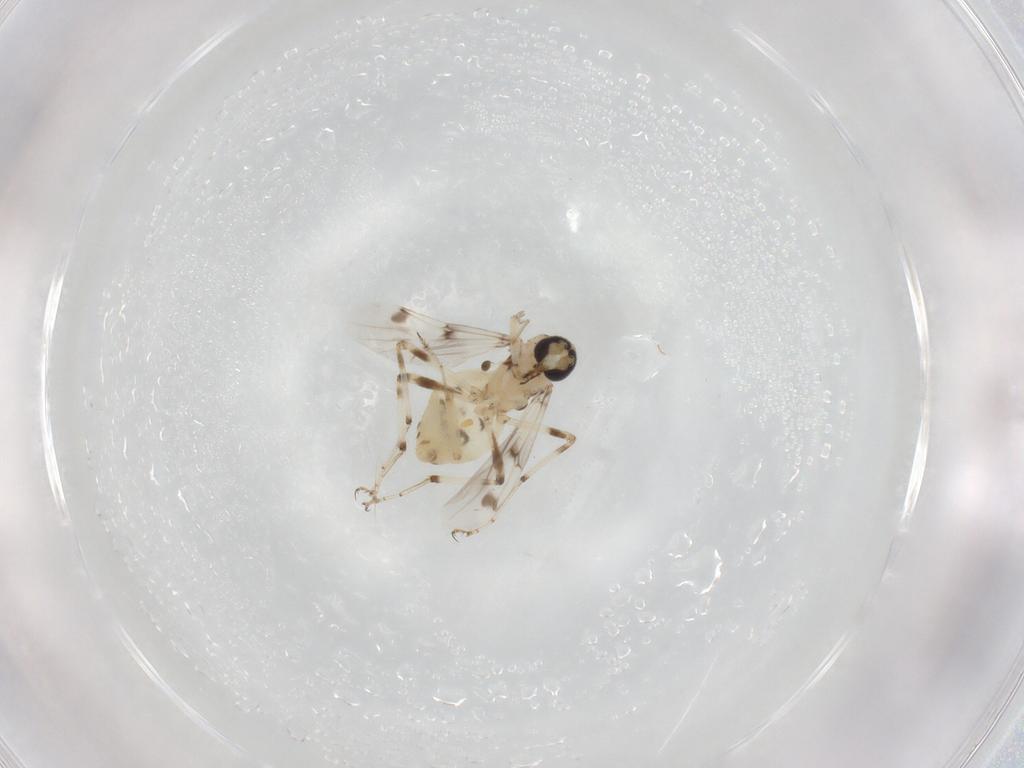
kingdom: Animalia
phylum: Arthropoda
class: Insecta
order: Diptera
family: Ceratopogonidae
